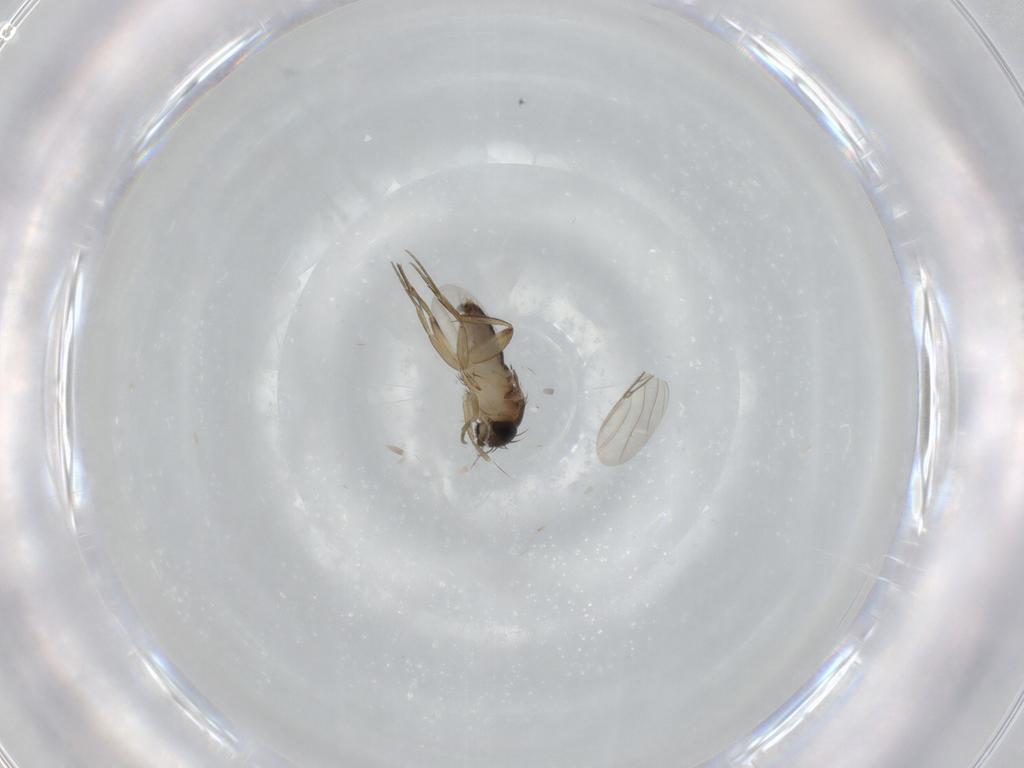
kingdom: Animalia
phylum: Arthropoda
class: Insecta
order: Diptera
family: Phoridae
